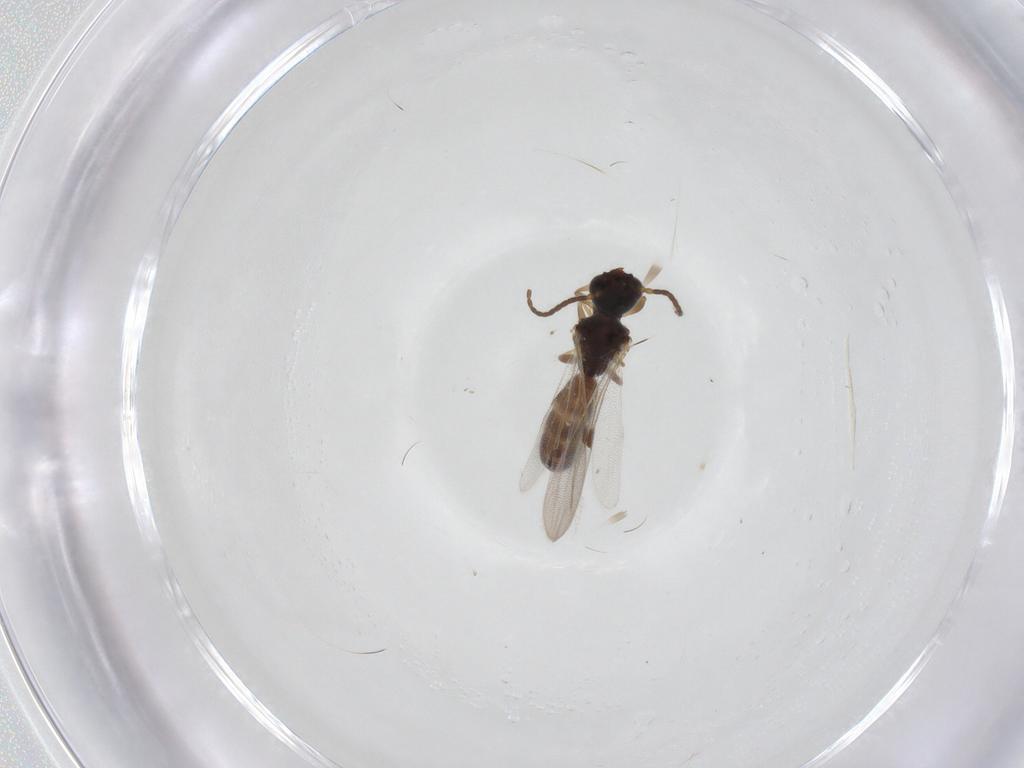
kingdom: Animalia
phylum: Arthropoda
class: Insecta
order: Hymenoptera
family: Bethylidae
